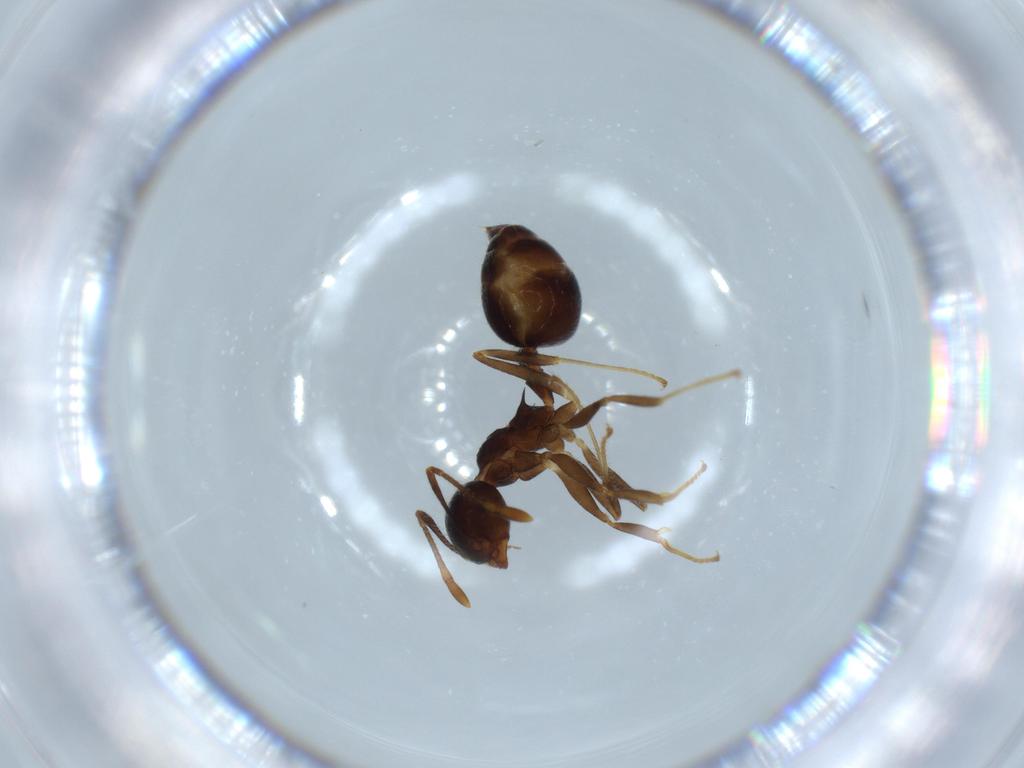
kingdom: Animalia
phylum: Arthropoda
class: Insecta
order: Hymenoptera
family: Formicidae
